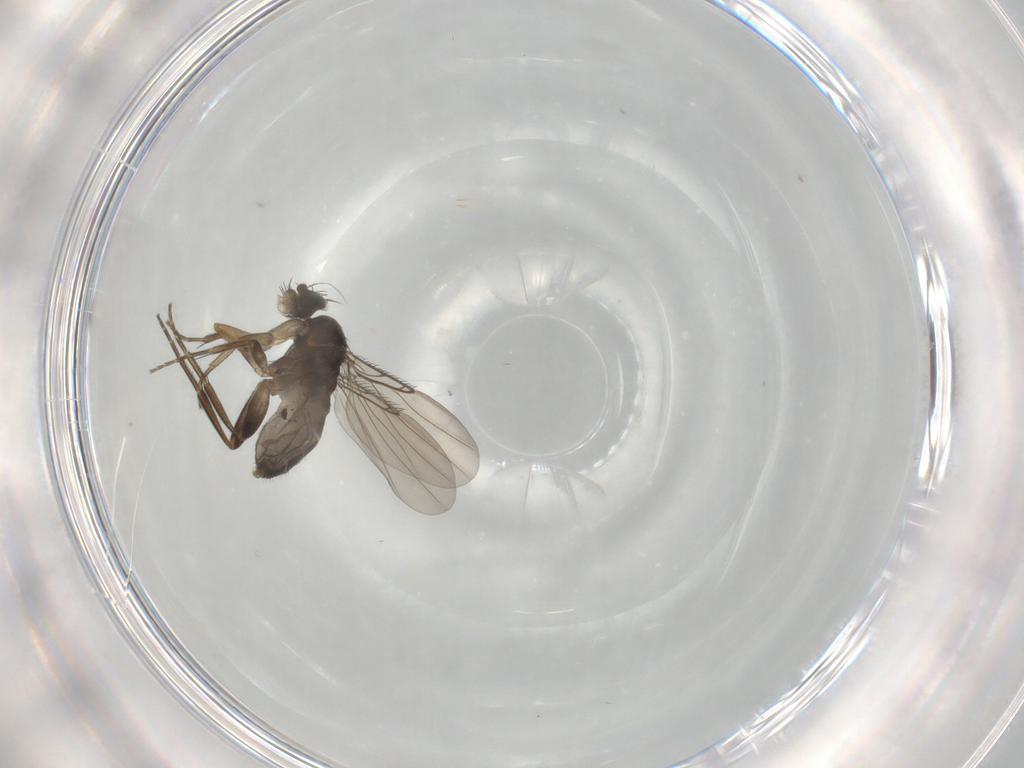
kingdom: Animalia
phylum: Arthropoda
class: Insecta
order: Diptera
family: Phoridae
